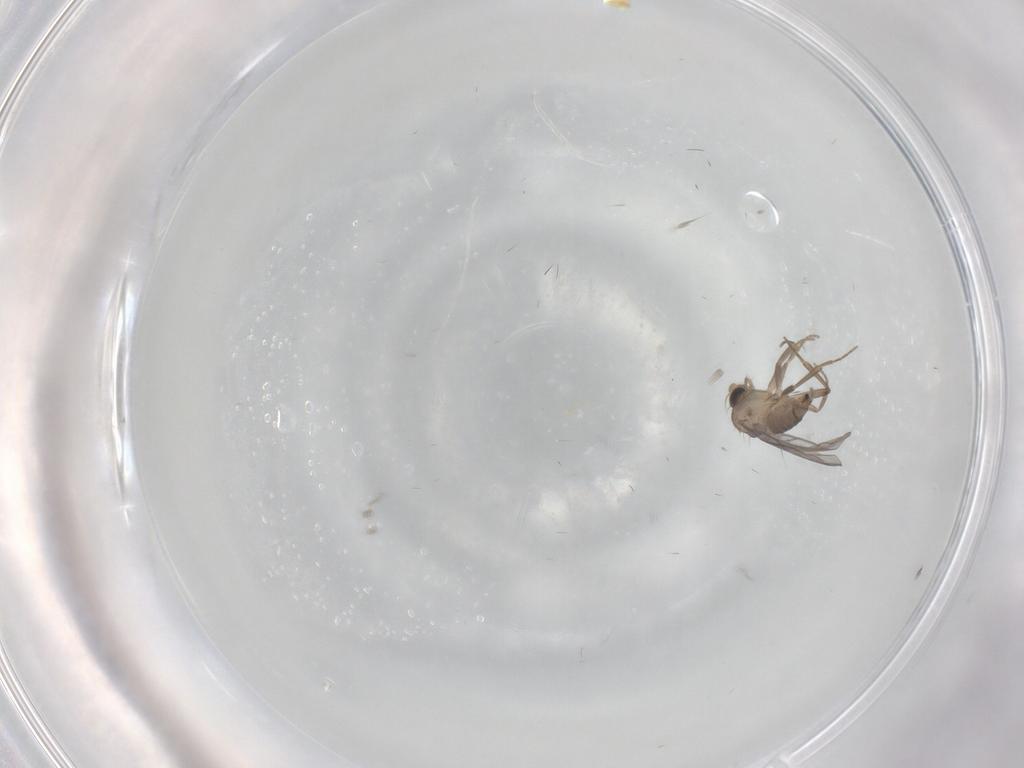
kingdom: Animalia
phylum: Arthropoda
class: Insecta
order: Diptera
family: Cecidomyiidae
